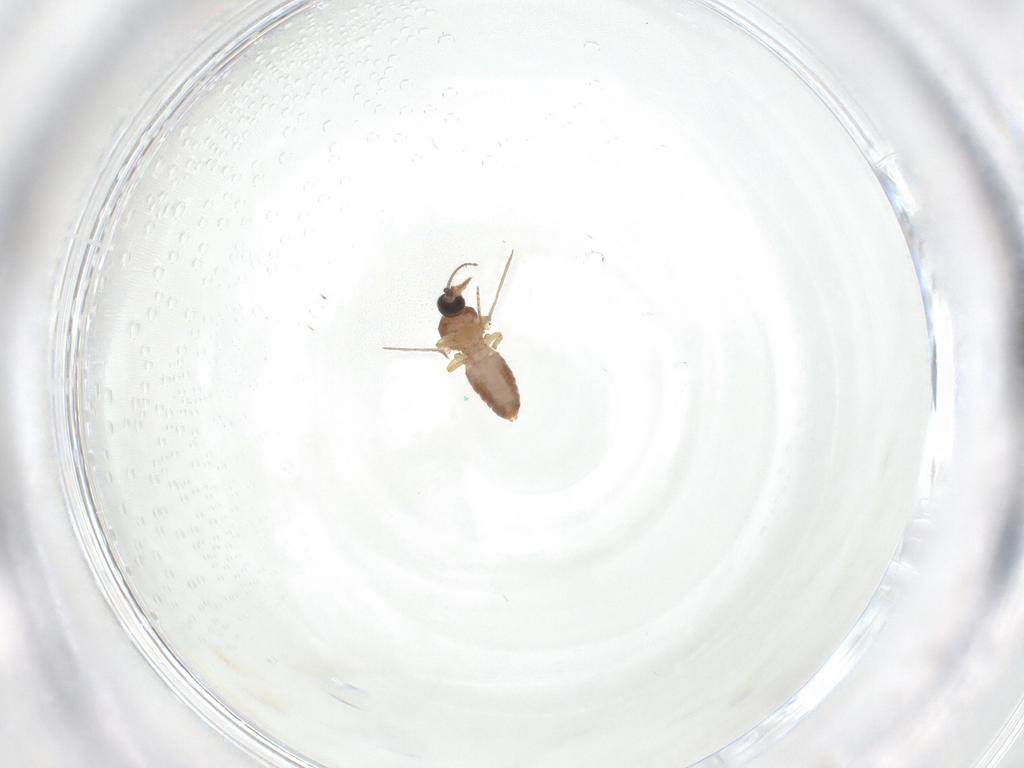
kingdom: Animalia
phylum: Arthropoda
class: Insecta
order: Diptera
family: Ceratopogonidae
